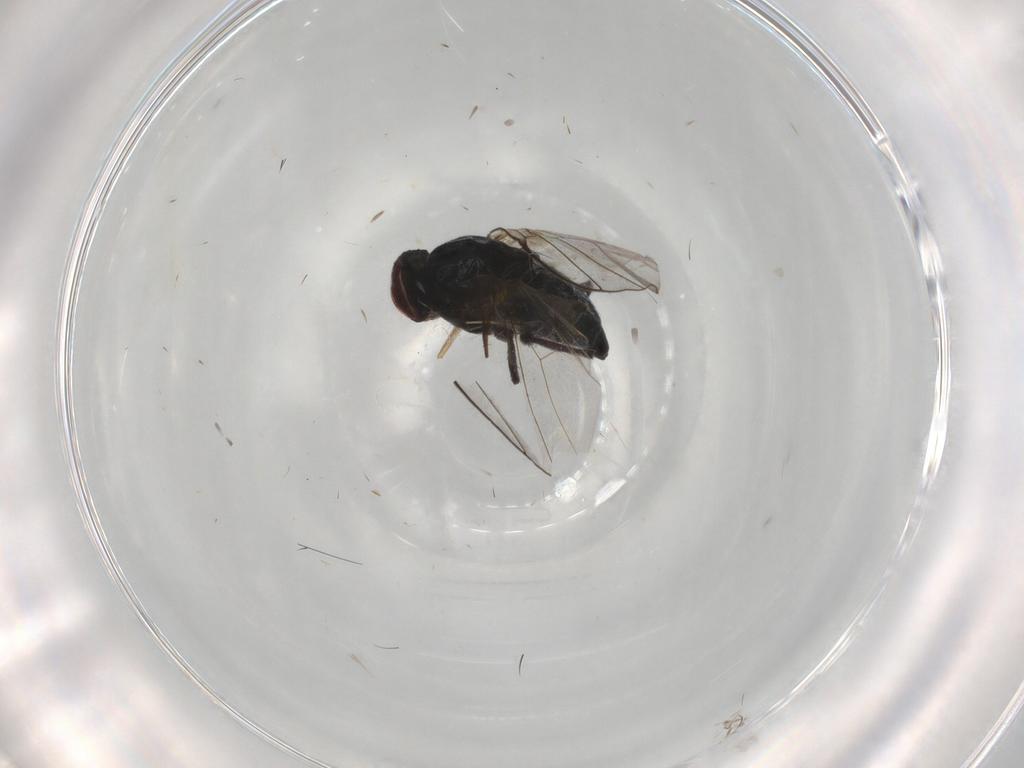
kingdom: Animalia
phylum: Arthropoda
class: Insecta
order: Diptera
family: Agromyzidae
